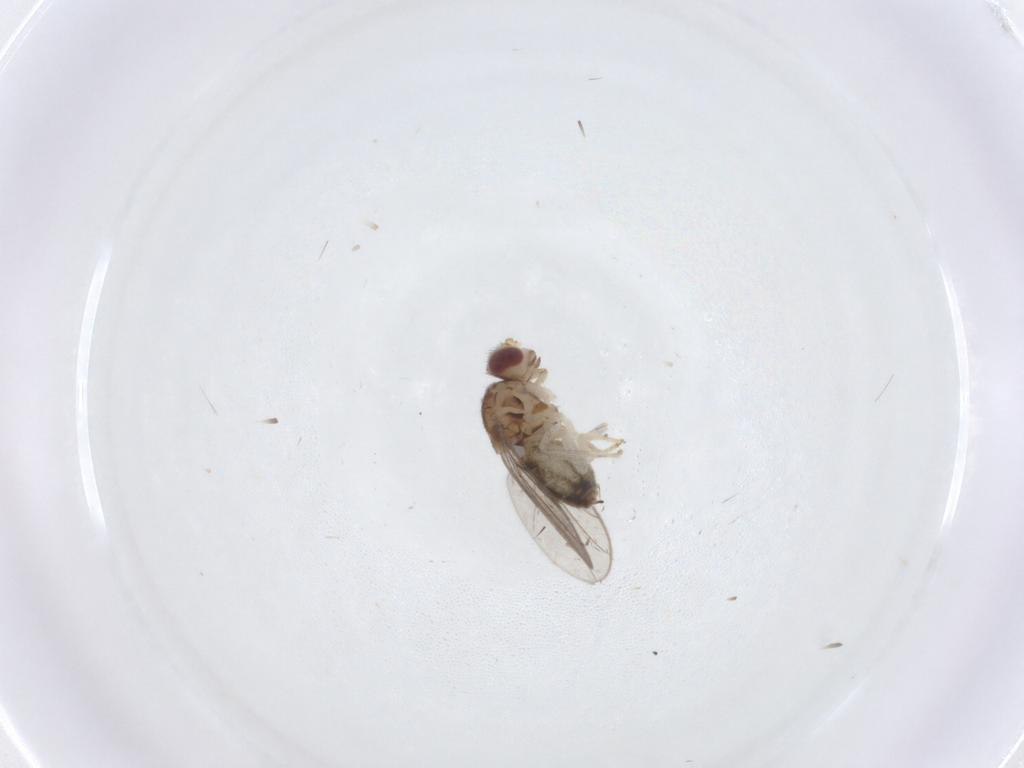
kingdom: Animalia
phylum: Arthropoda
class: Insecta
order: Diptera
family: Chloropidae
